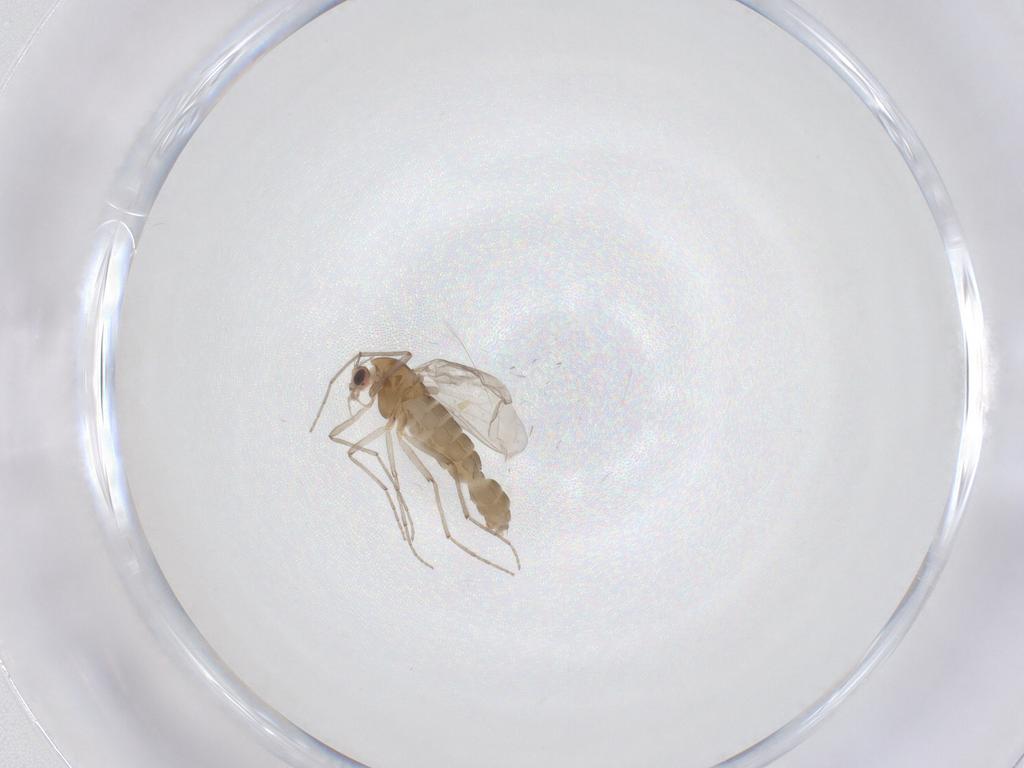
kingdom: Animalia
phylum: Arthropoda
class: Insecta
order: Diptera
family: Chironomidae
